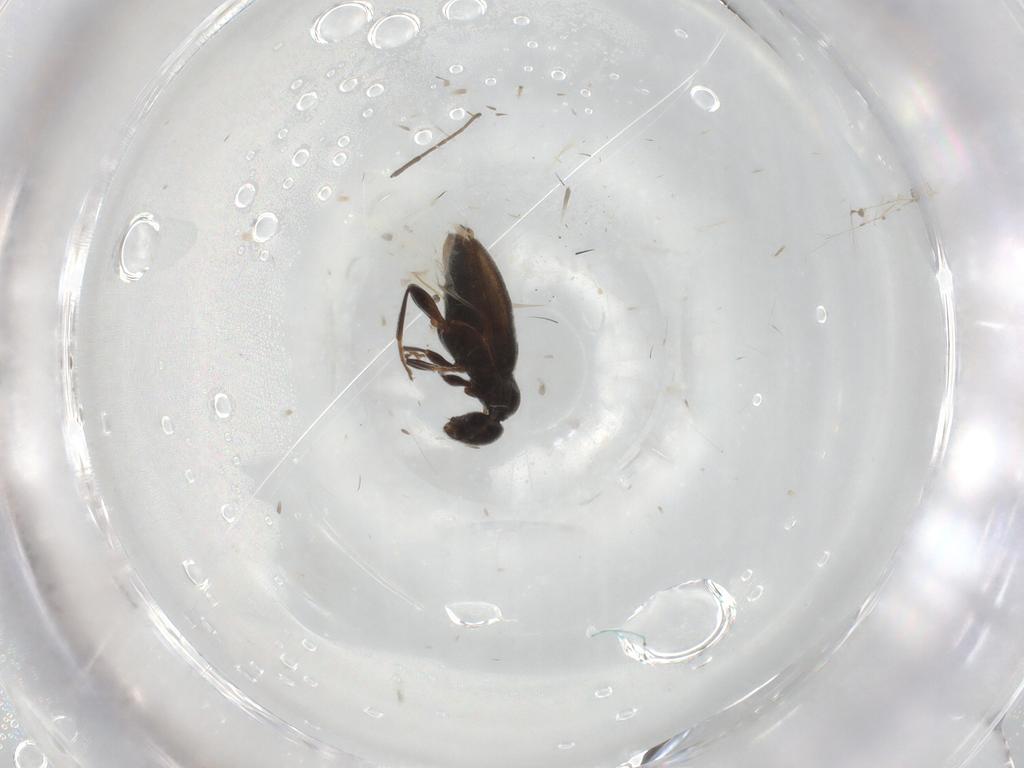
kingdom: Animalia
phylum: Arthropoda
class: Insecta
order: Coleoptera
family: Anthicidae
